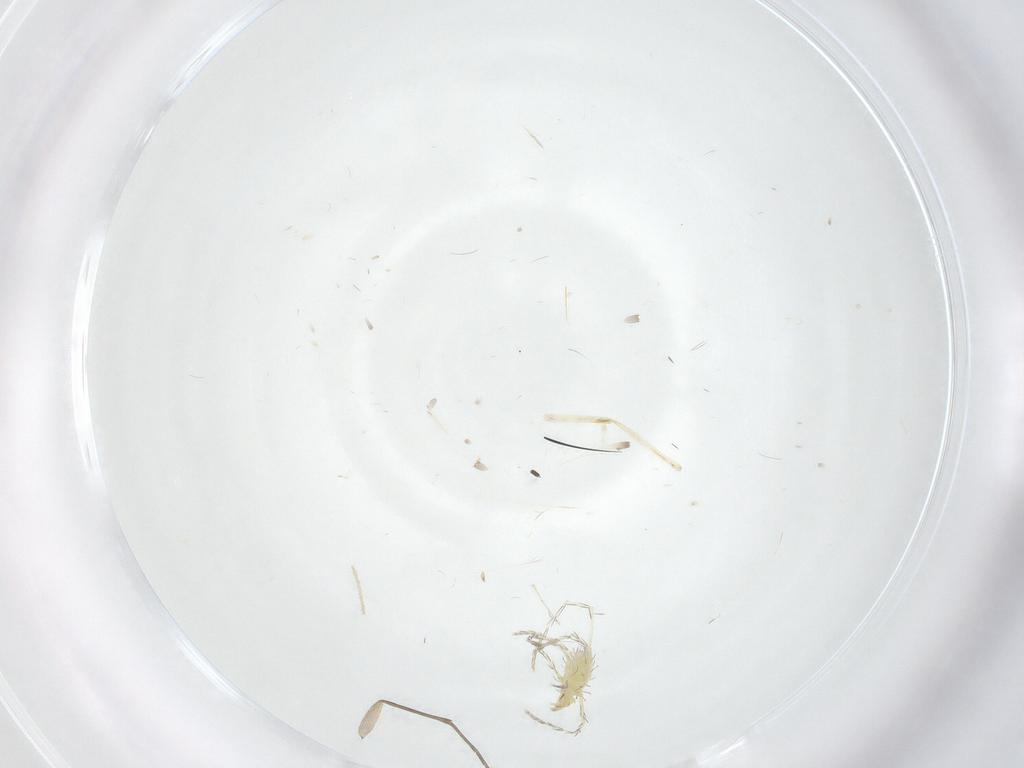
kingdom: Animalia
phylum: Arthropoda
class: Insecta
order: Diptera
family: Sciaridae
